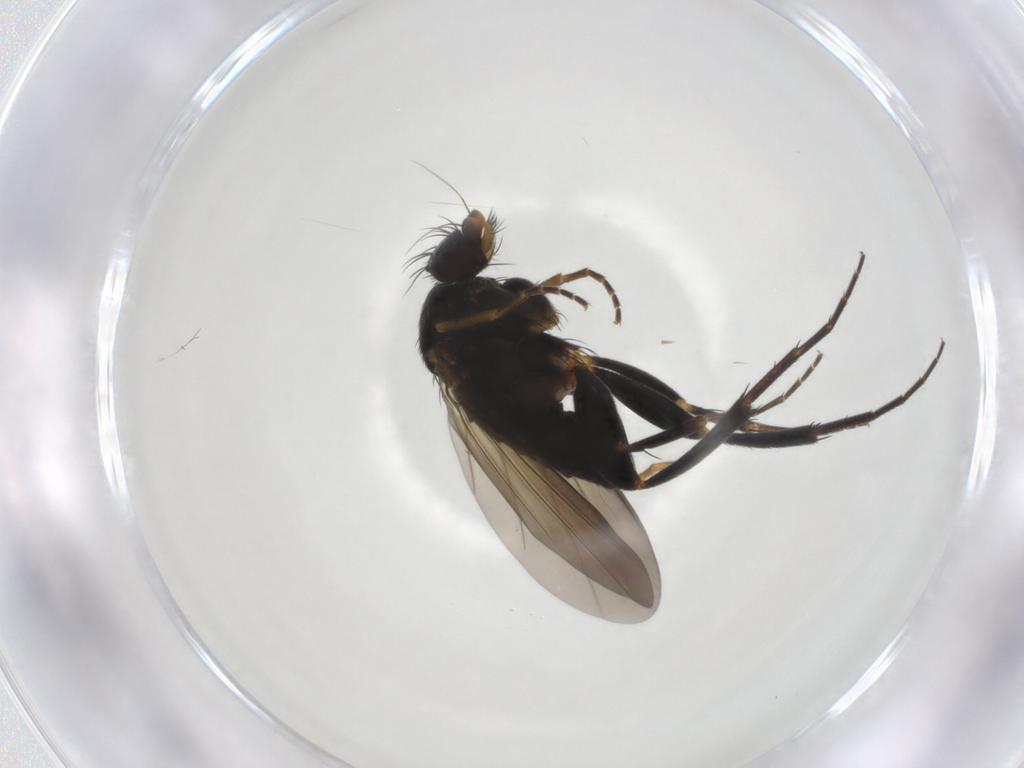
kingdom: Animalia
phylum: Arthropoda
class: Insecta
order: Diptera
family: Phoridae
